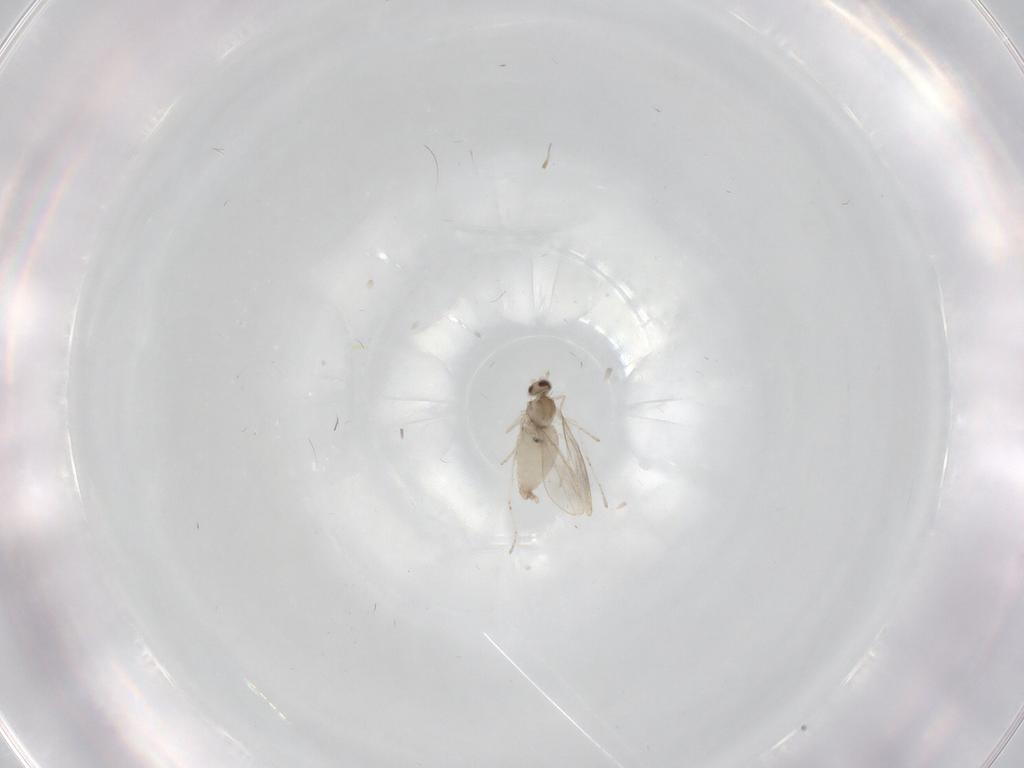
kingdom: Animalia
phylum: Arthropoda
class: Insecta
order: Diptera
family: Cecidomyiidae
